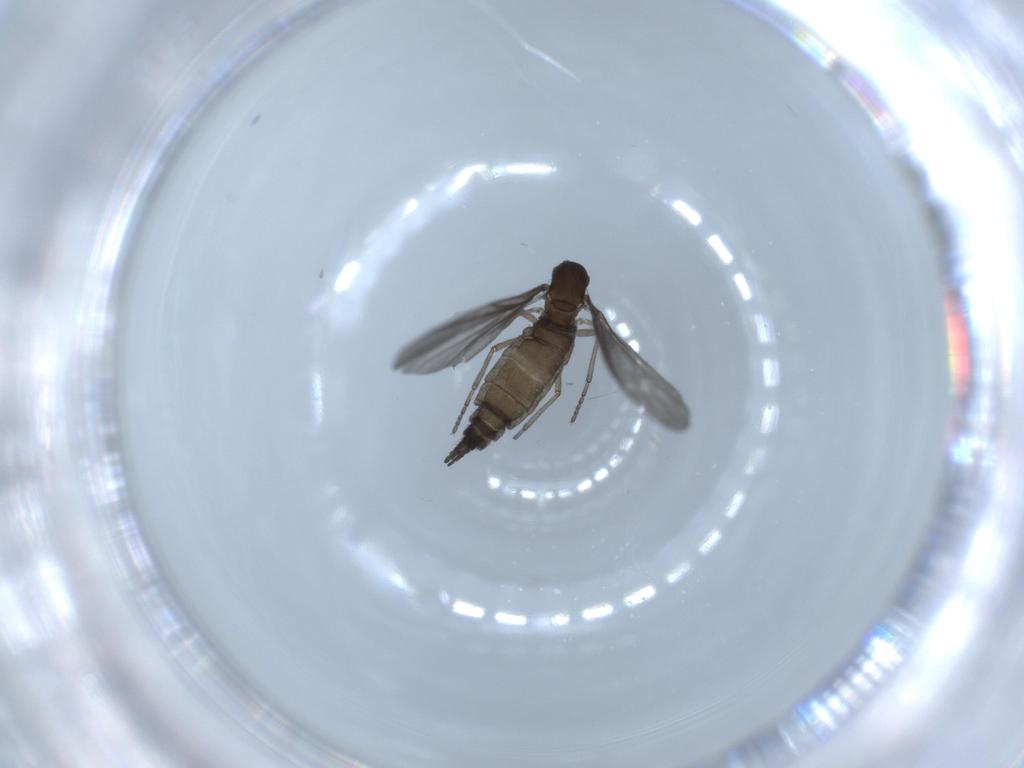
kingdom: Animalia
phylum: Arthropoda
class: Insecta
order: Diptera
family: Sciaridae
